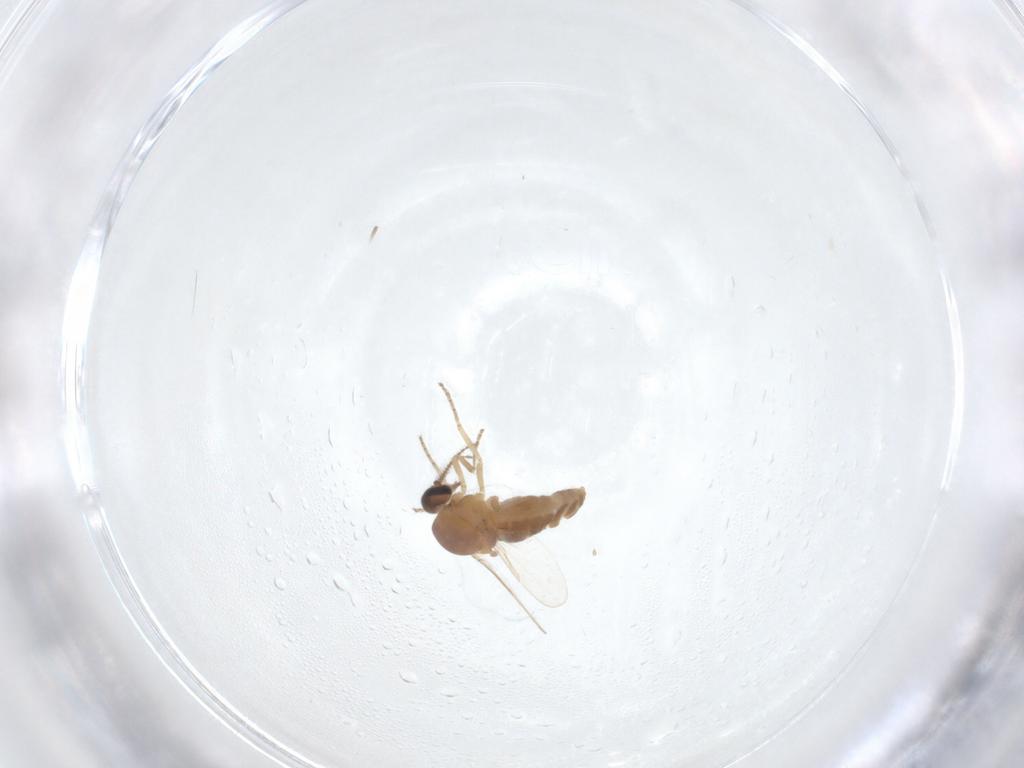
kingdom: Animalia
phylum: Arthropoda
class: Insecta
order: Diptera
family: Ceratopogonidae
